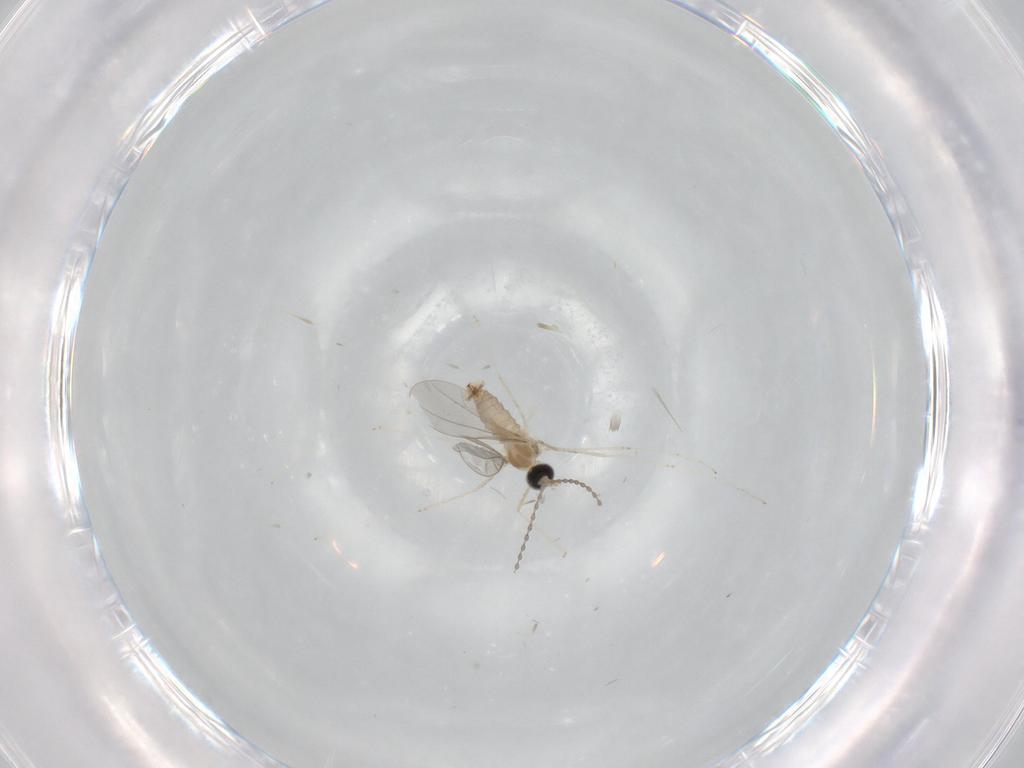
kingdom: Animalia
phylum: Arthropoda
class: Insecta
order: Diptera
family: Cecidomyiidae
